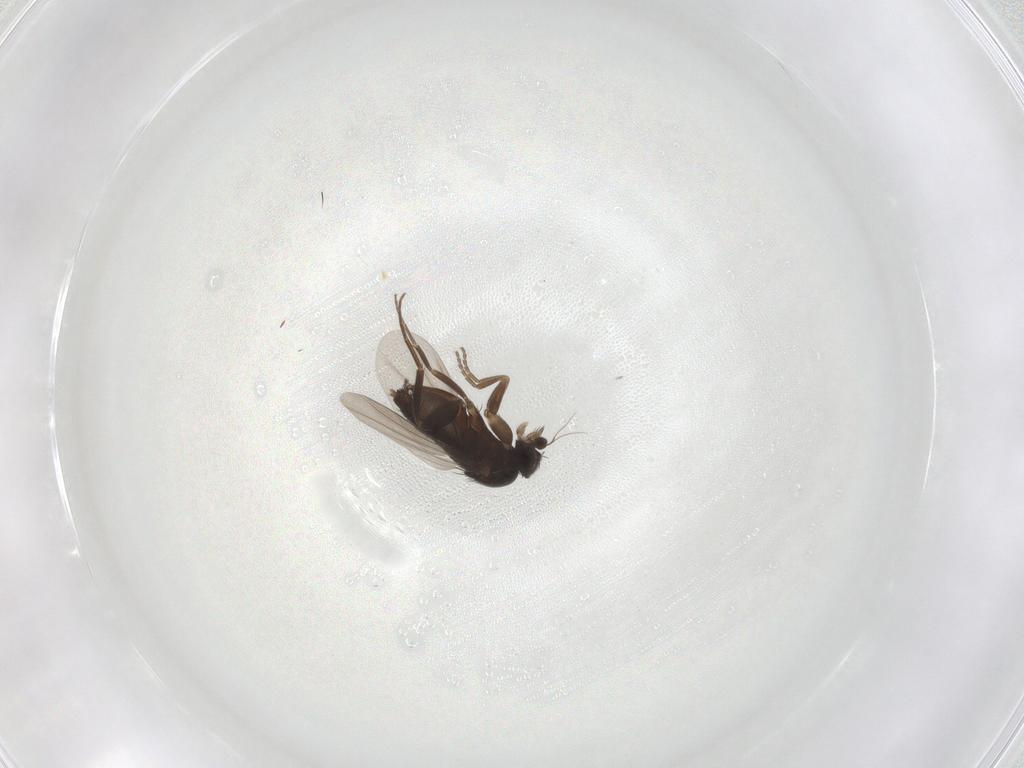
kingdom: Animalia
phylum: Arthropoda
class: Insecta
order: Diptera
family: Phoridae
